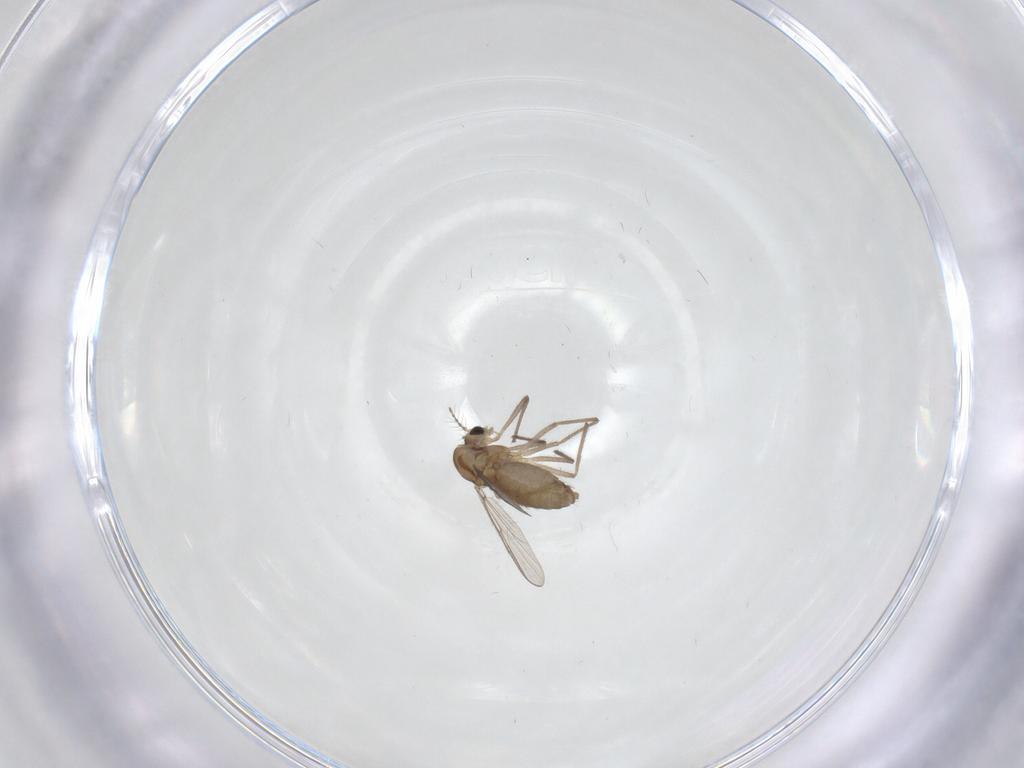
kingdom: Animalia
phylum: Arthropoda
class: Insecta
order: Diptera
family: Chironomidae
